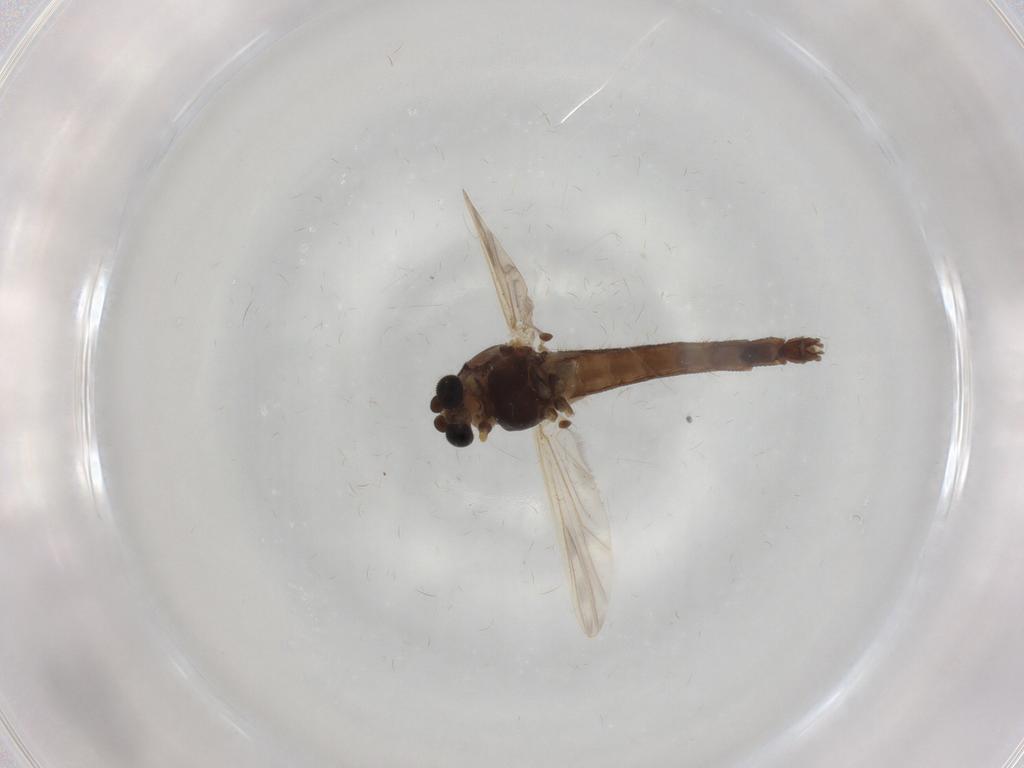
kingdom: Animalia
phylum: Arthropoda
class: Insecta
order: Diptera
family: Chironomidae
